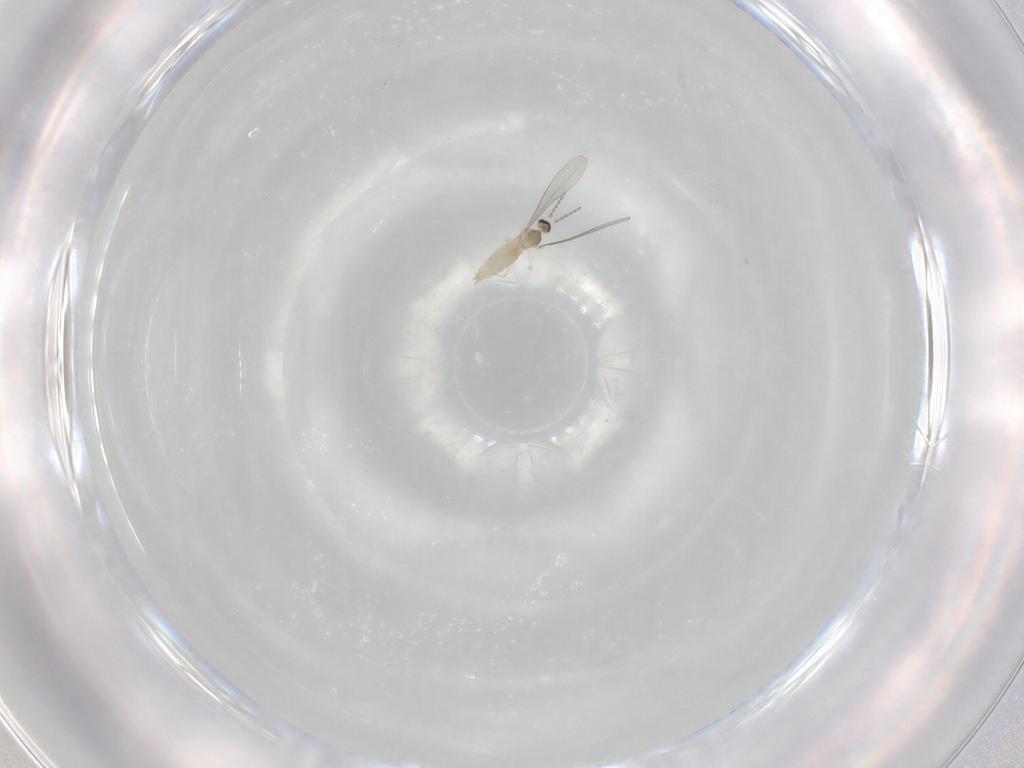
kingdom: Animalia
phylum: Arthropoda
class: Insecta
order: Diptera
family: Cecidomyiidae
